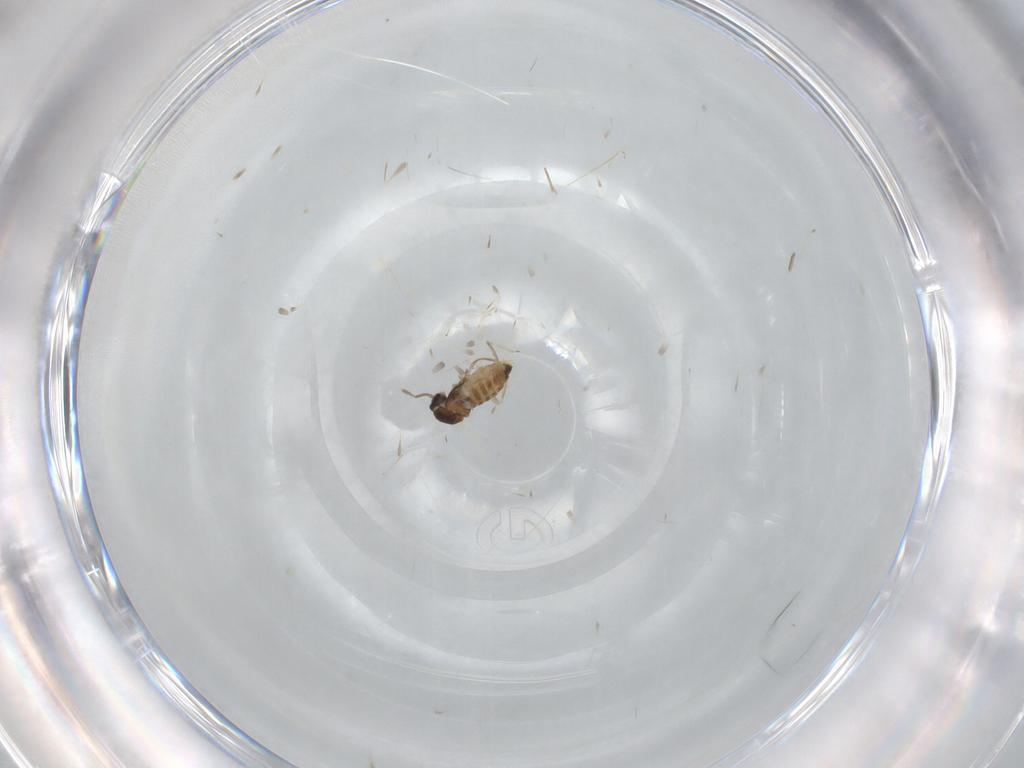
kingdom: Animalia
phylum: Arthropoda
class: Insecta
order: Diptera
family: Cecidomyiidae
